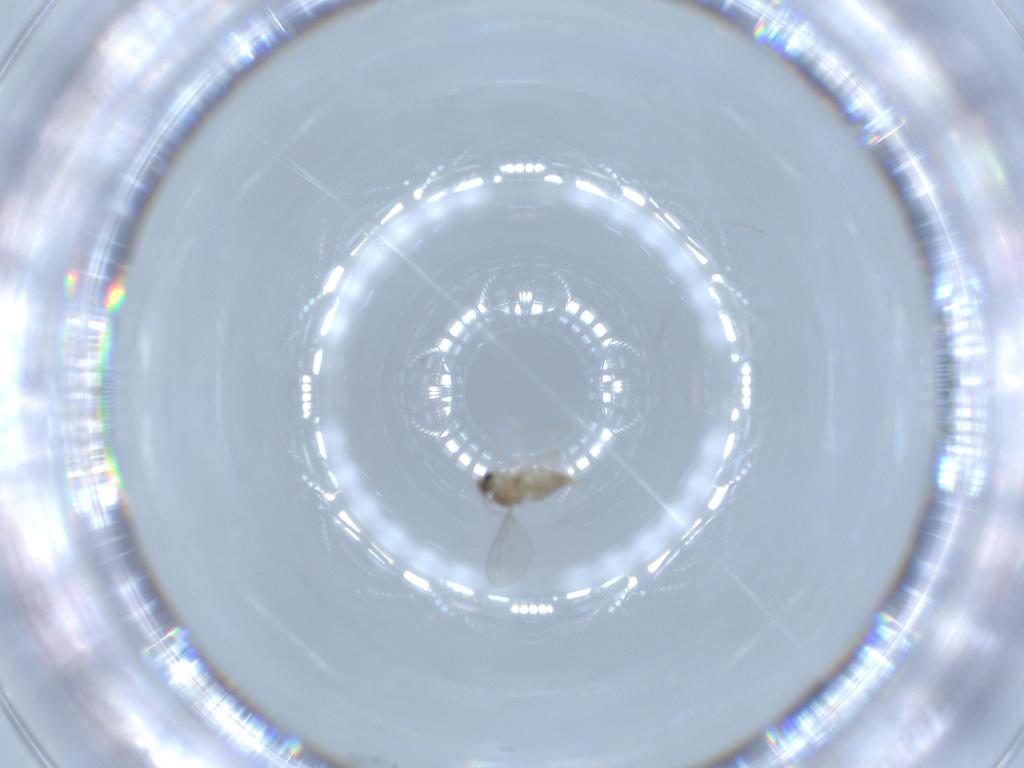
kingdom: Animalia
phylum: Arthropoda
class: Insecta
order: Diptera
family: Cecidomyiidae
